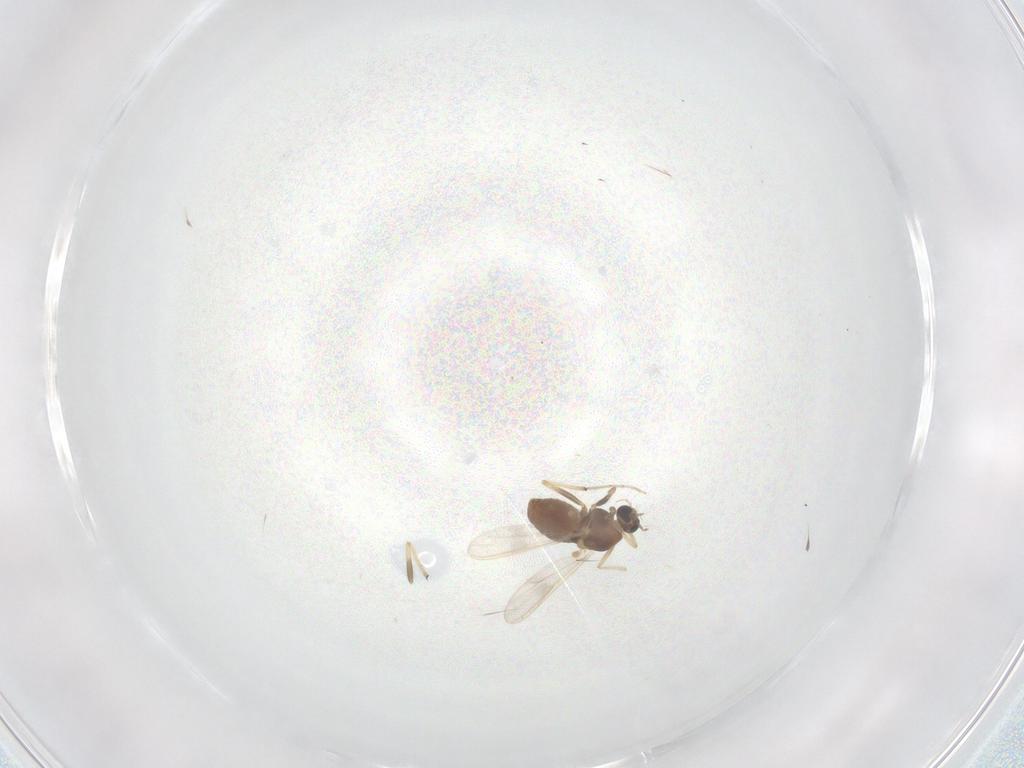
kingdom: Animalia
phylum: Arthropoda
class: Insecta
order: Diptera
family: Chironomidae
